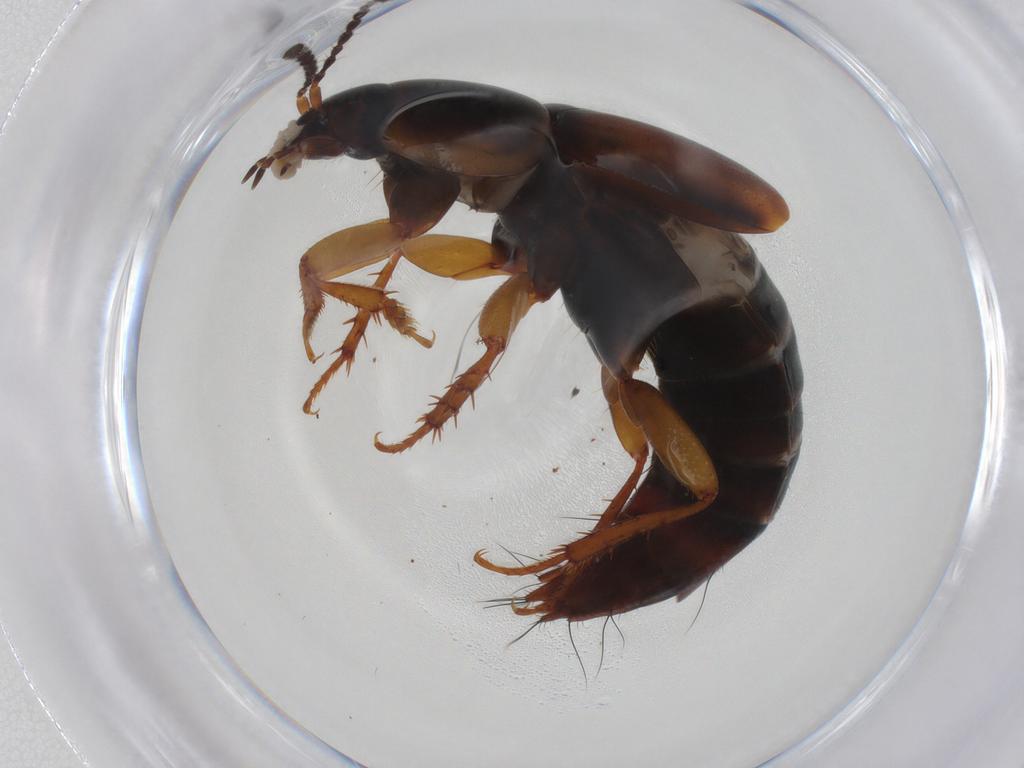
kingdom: Animalia
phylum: Arthropoda
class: Insecta
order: Coleoptera
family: Staphylinidae
